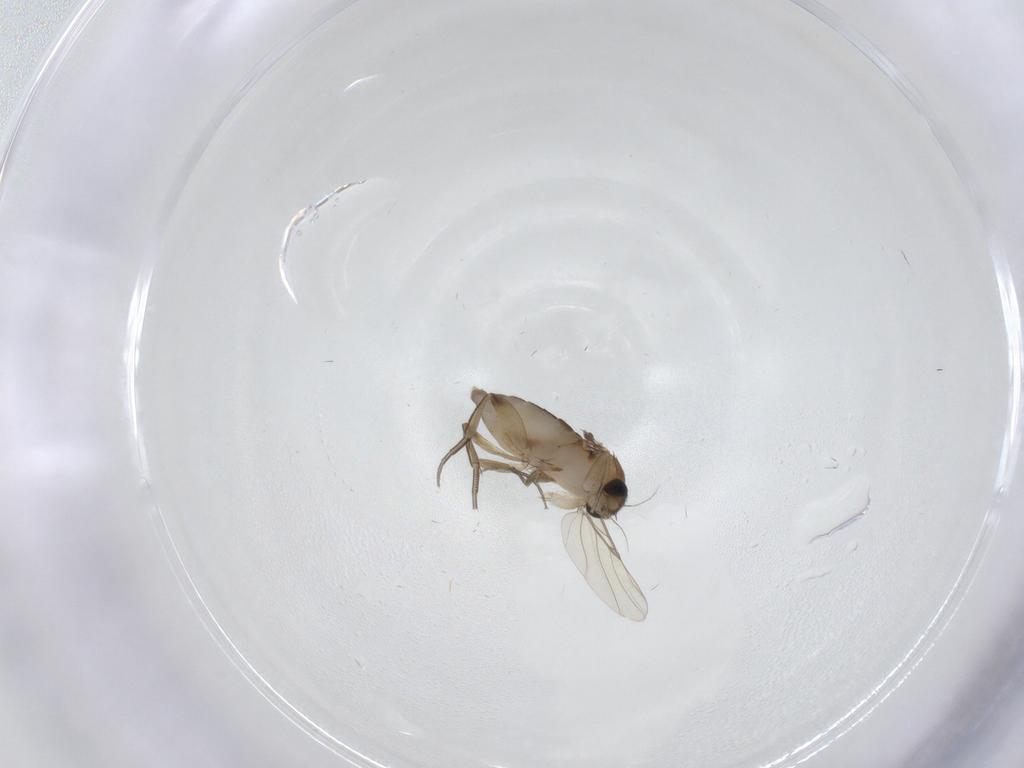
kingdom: Animalia
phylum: Arthropoda
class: Insecta
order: Diptera
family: Phoridae
